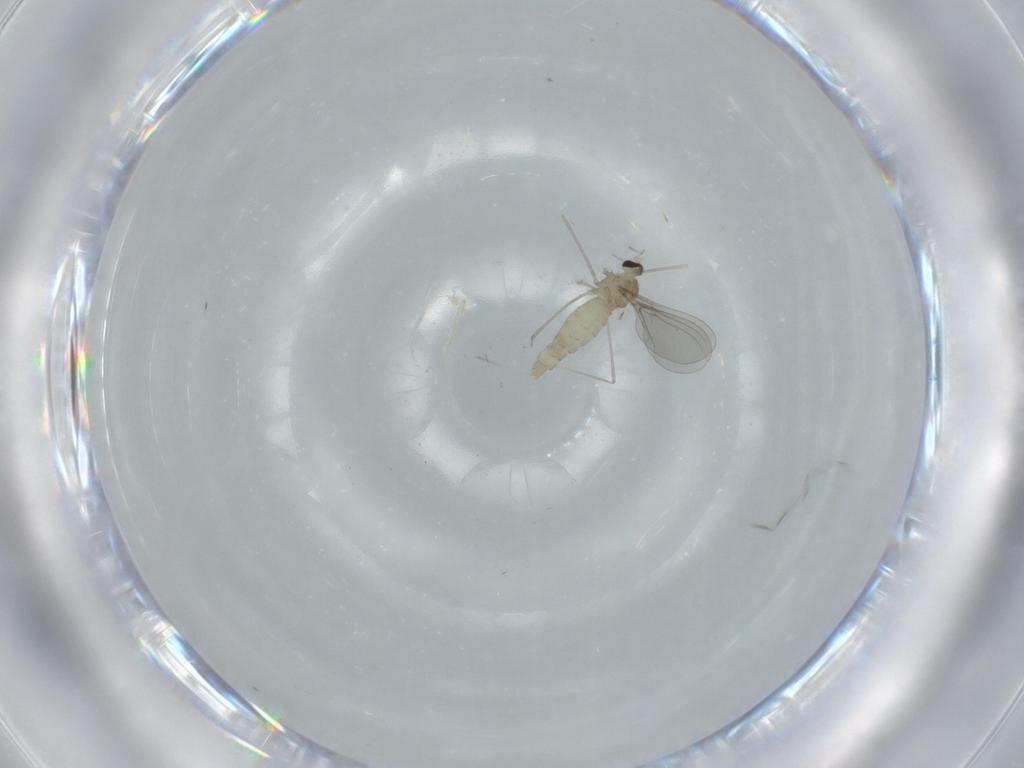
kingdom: Animalia
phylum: Arthropoda
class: Insecta
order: Diptera
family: Cecidomyiidae
